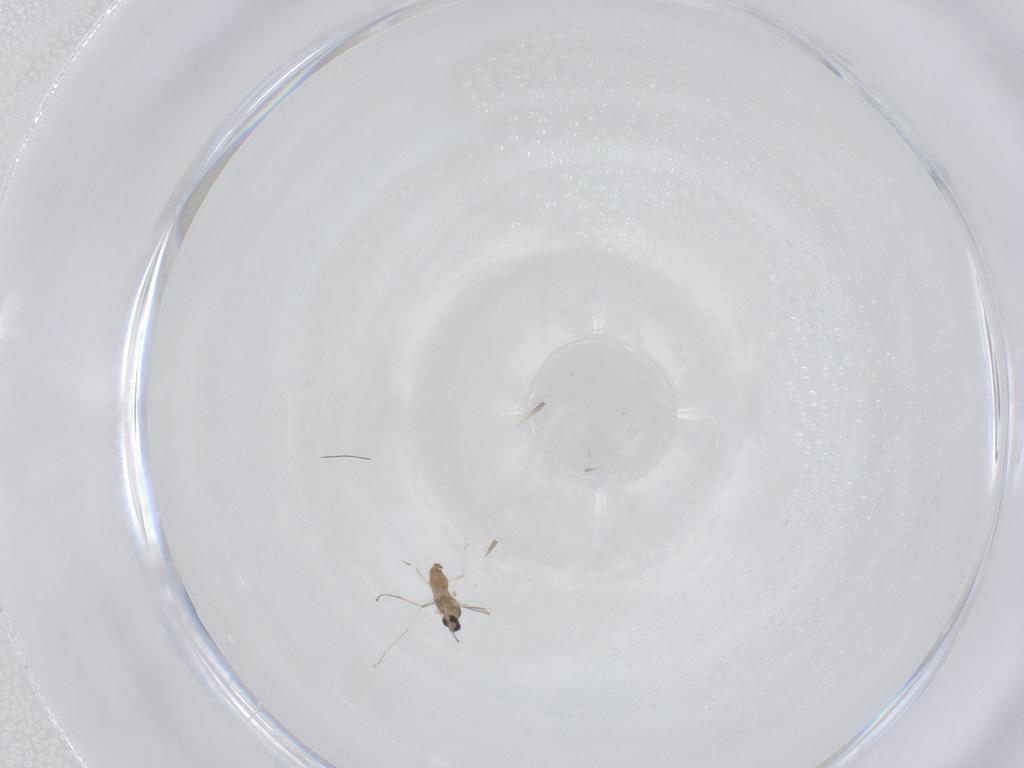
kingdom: Animalia
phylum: Arthropoda
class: Insecta
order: Diptera
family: Cecidomyiidae
